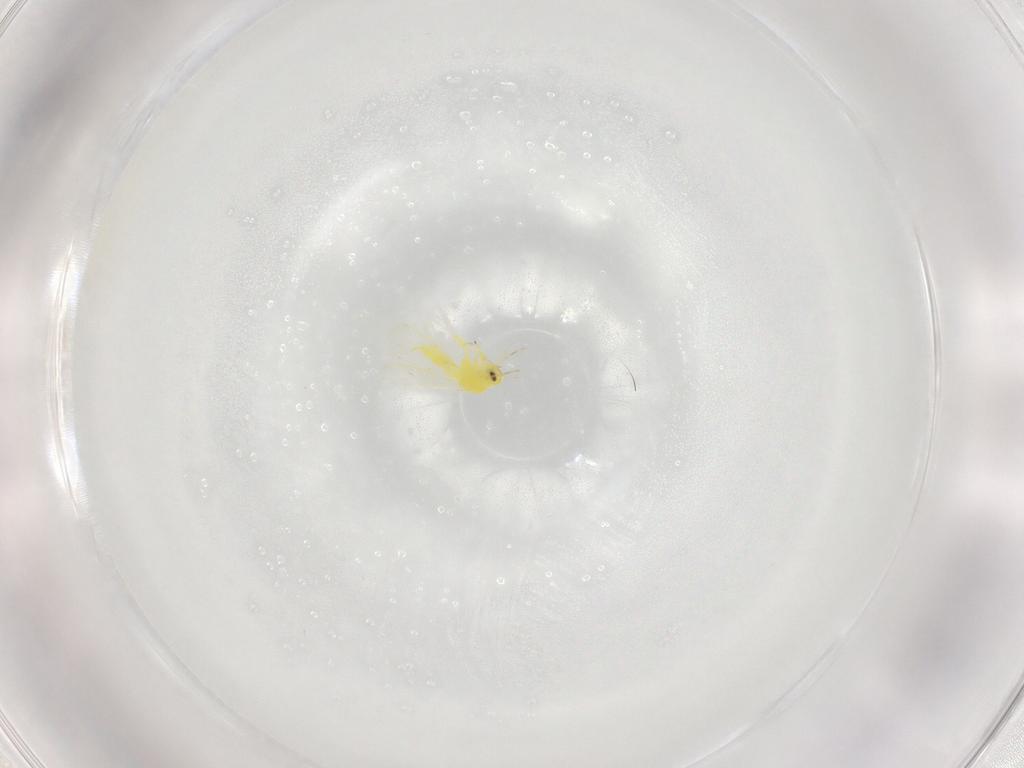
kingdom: Animalia
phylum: Arthropoda
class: Insecta
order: Hemiptera
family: Aleyrodidae
